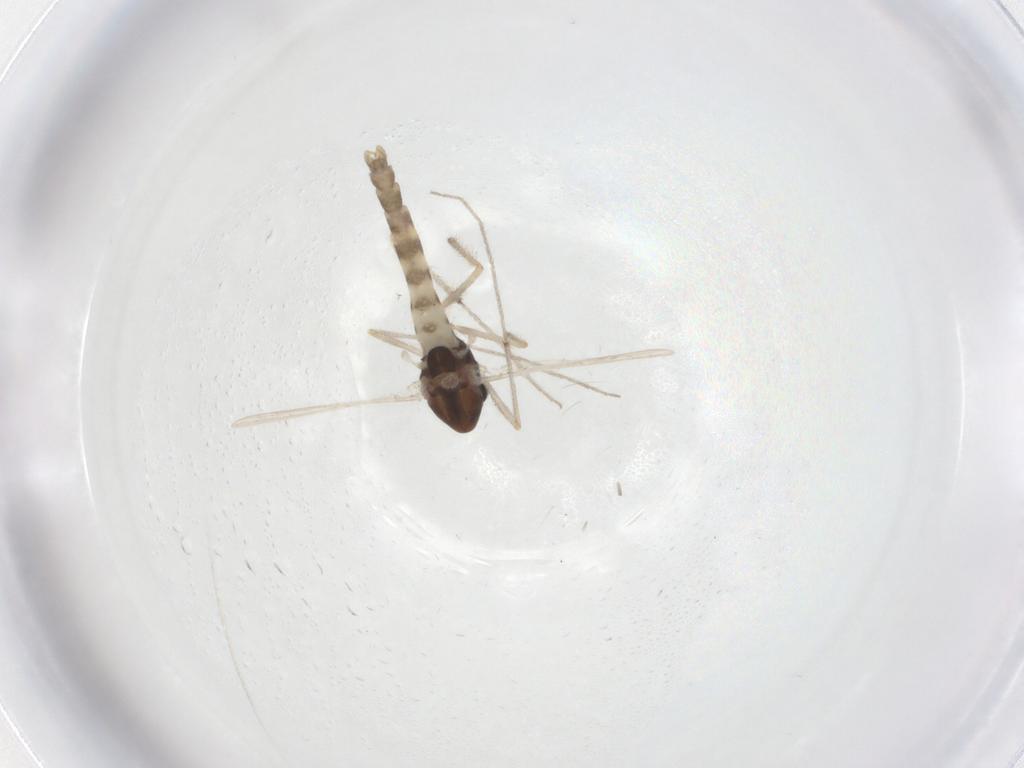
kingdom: Animalia
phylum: Arthropoda
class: Insecta
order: Diptera
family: Chironomidae
